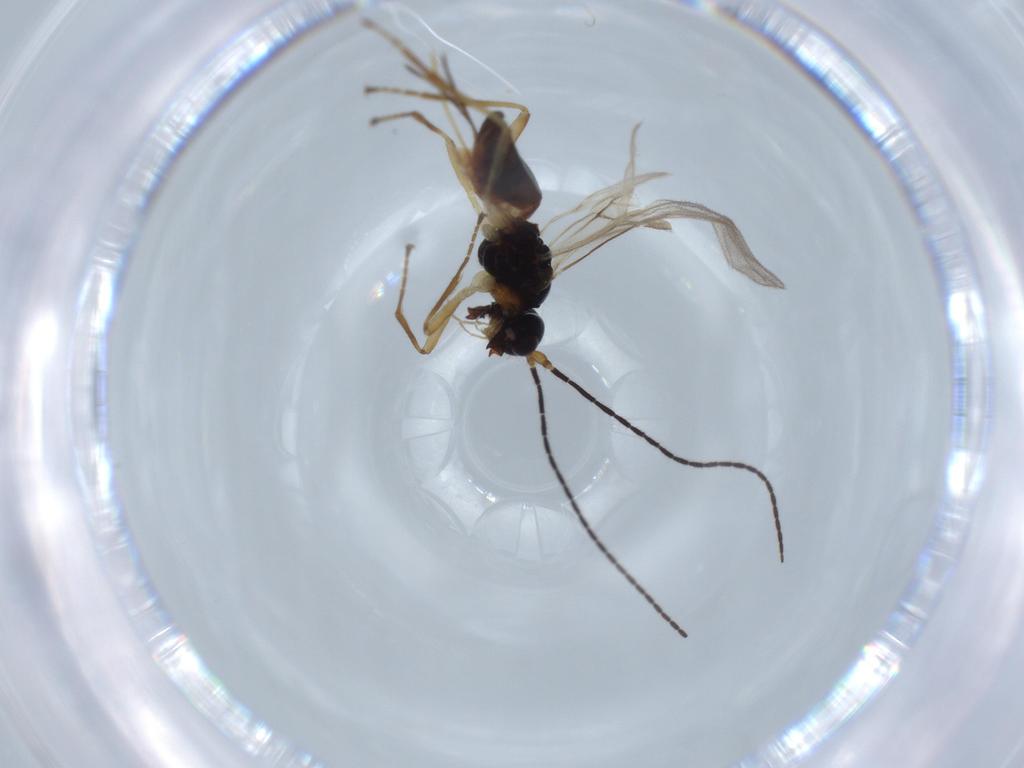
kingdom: Animalia
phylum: Arthropoda
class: Insecta
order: Hymenoptera
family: Braconidae
